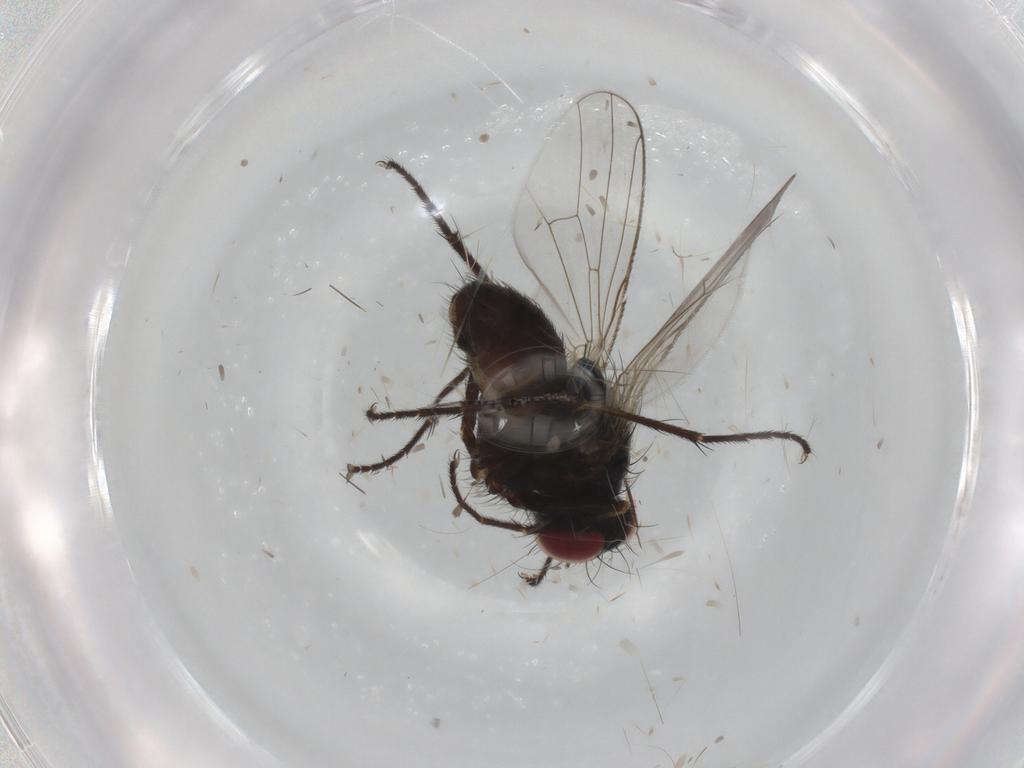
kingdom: Animalia
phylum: Arthropoda
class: Insecta
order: Diptera
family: Muscidae
